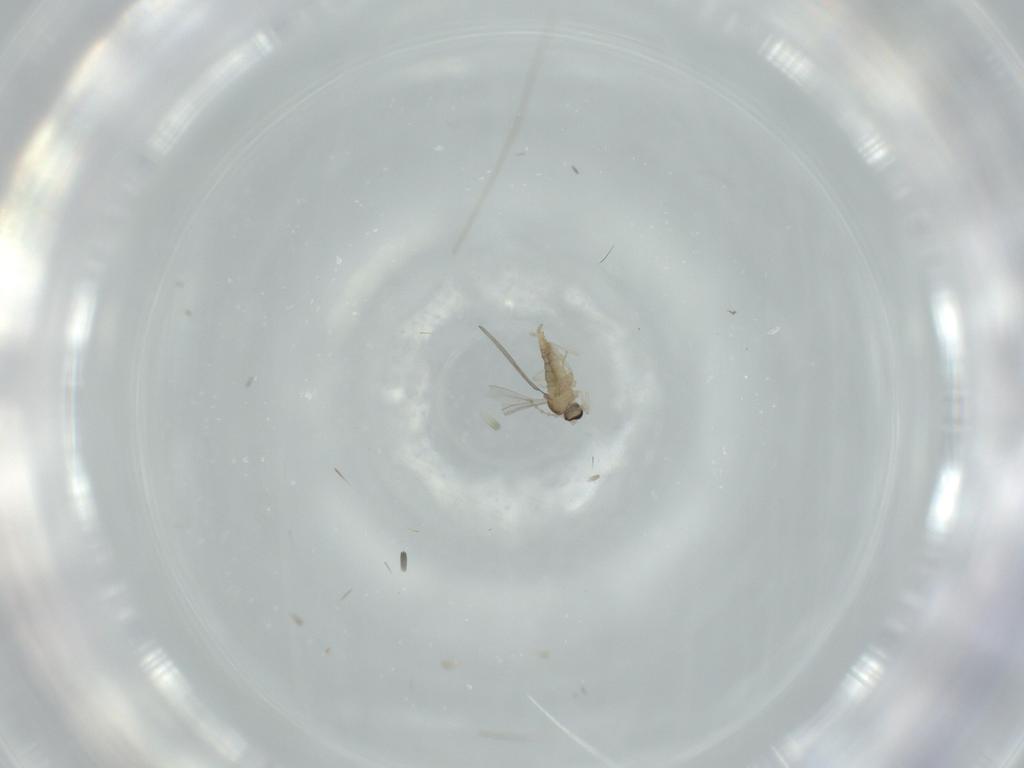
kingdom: Animalia
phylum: Arthropoda
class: Insecta
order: Diptera
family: Cecidomyiidae
